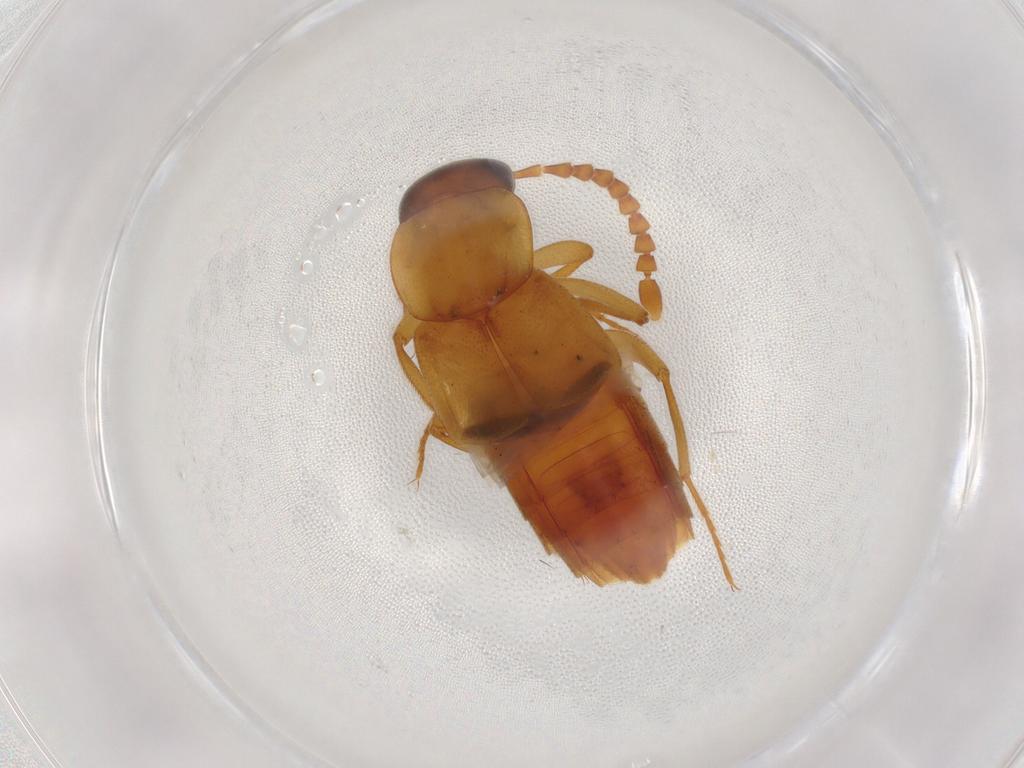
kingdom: Animalia
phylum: Arthropoda
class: Insecta
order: Coleoptera
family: Staphylinidae
